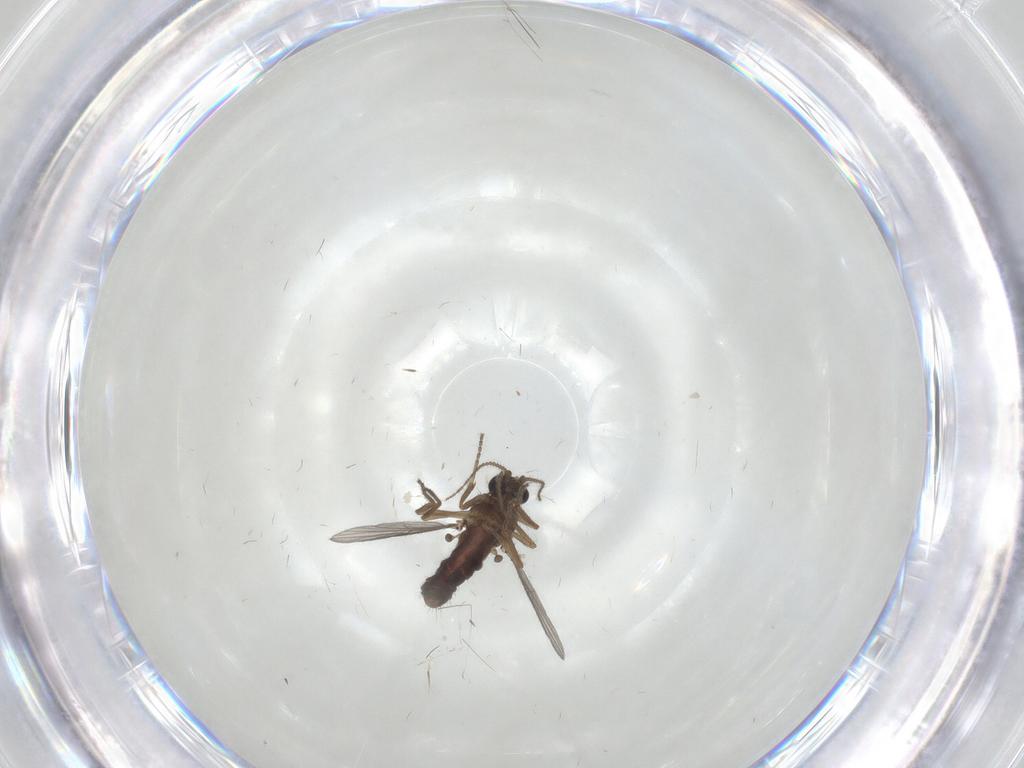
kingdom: Animalia
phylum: Arthropoda
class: Insecta
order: Diptera
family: Ceratopogonidae
